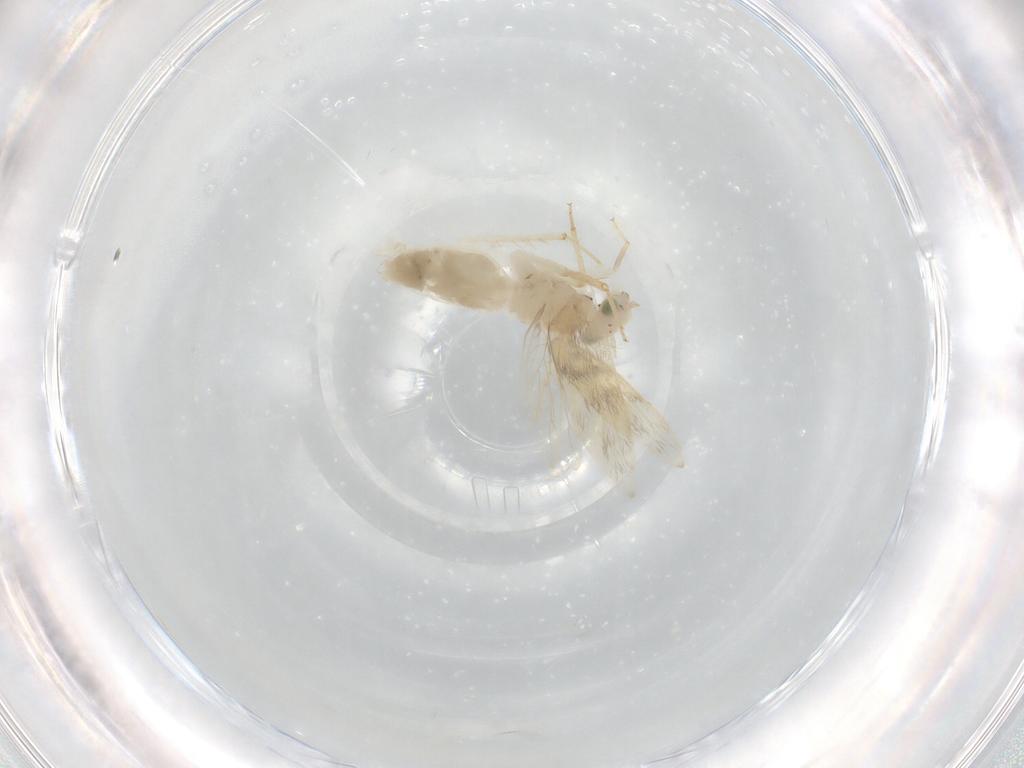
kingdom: Animalia
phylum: Arthropoda
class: Insecta
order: Psocodea
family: Lepidopsocidae
